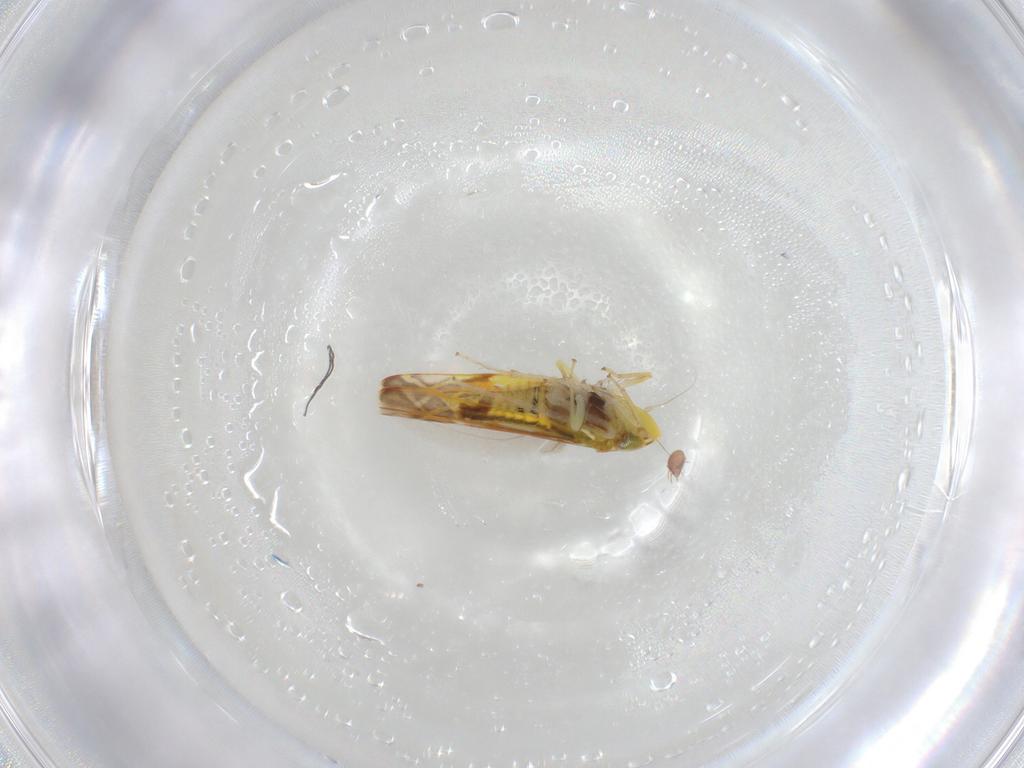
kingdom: Animalia
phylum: Arthropoda
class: Insecta
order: Hemiptera
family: Cicadellidae
